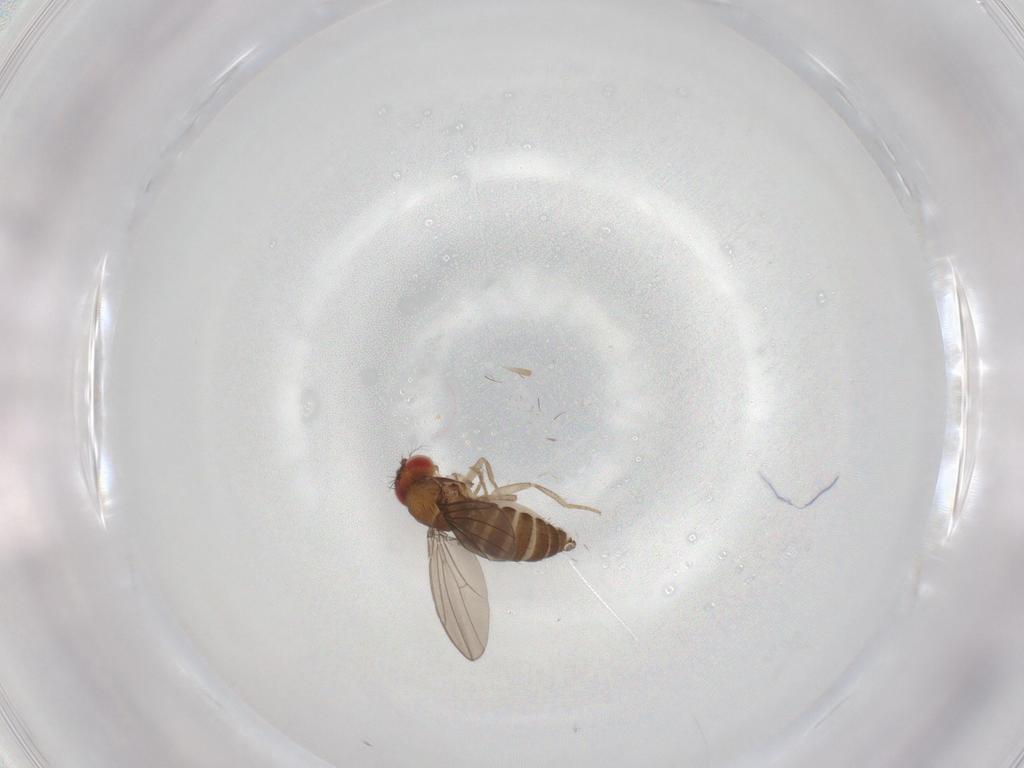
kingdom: Animalia
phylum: Arthropoda
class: Insecta
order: Diptera
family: Drosophilidae
